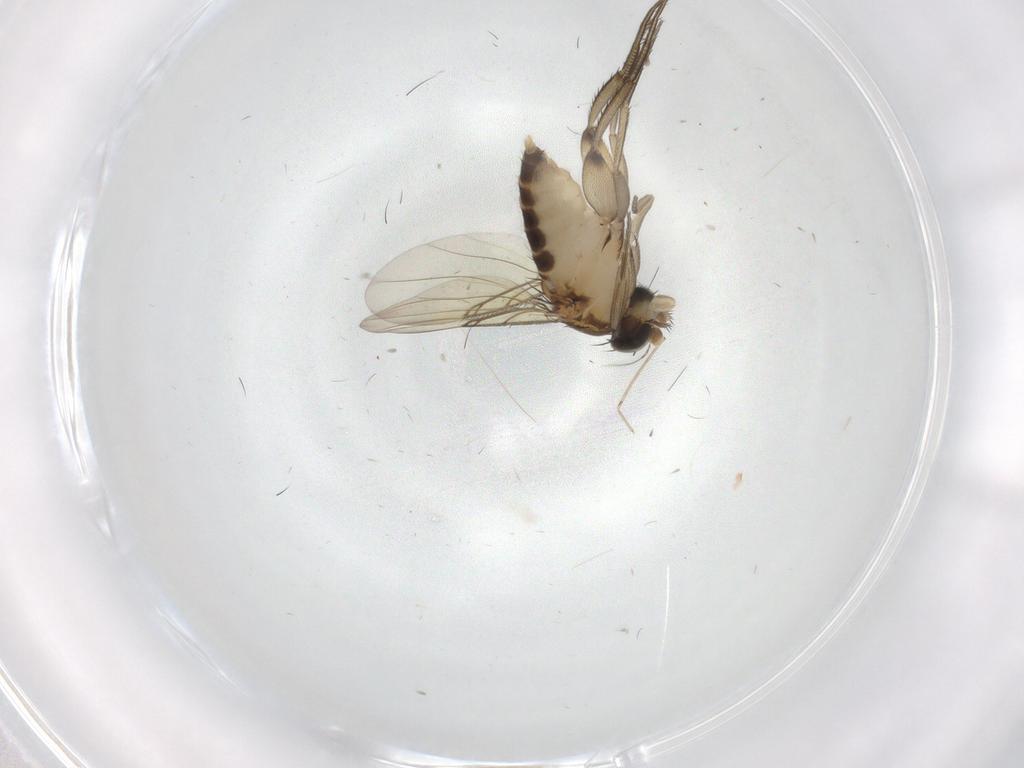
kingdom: Animalia
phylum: Arthropoda
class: Insecta
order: Diptera
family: Phoridae
